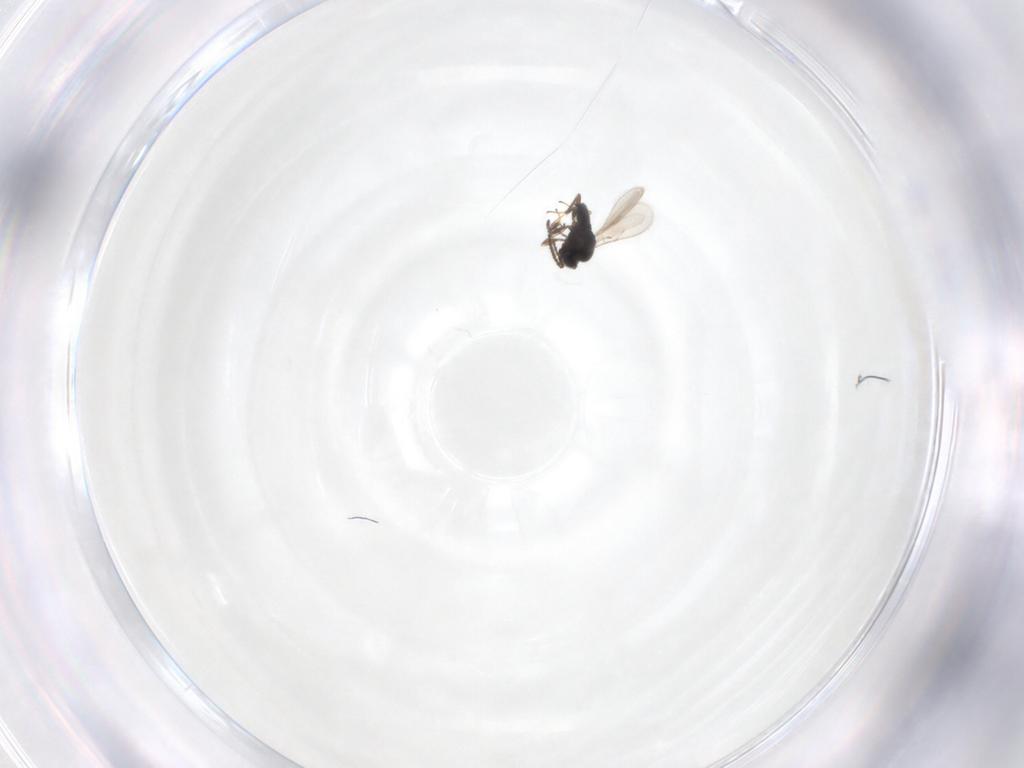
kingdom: Animalia
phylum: Arthropoda
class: Insecta
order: Hymenoptera
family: Scelionidae
